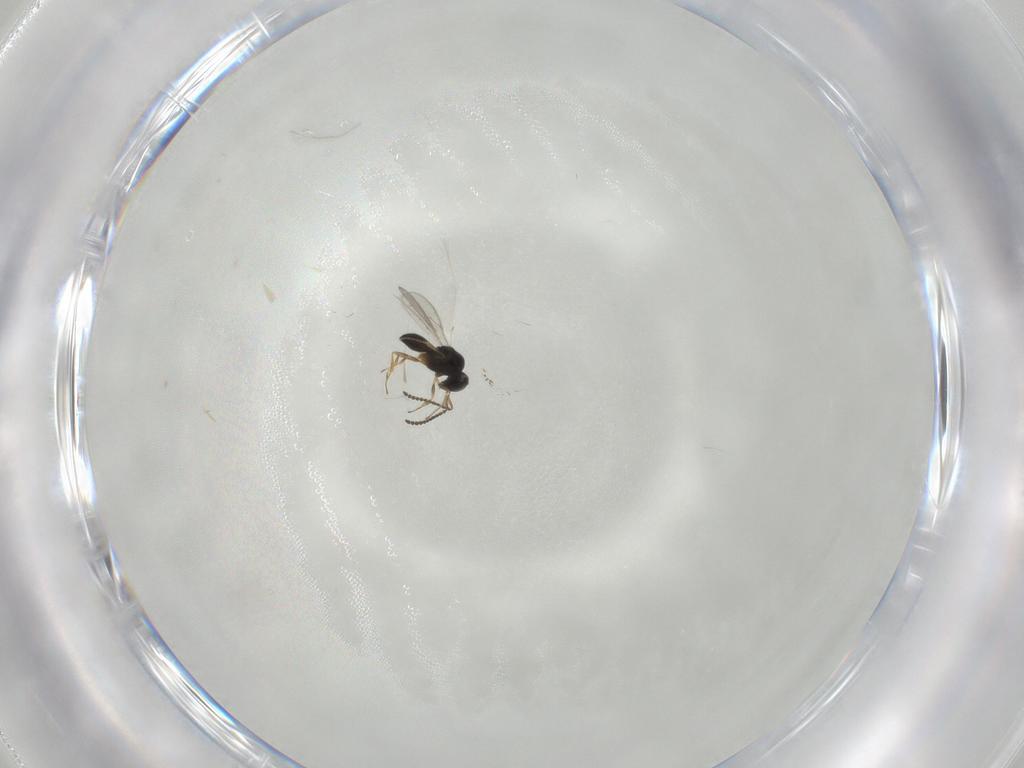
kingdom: Animalia
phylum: Arthropoda
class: Insecta
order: Hymenoptera
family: Scelionidae
